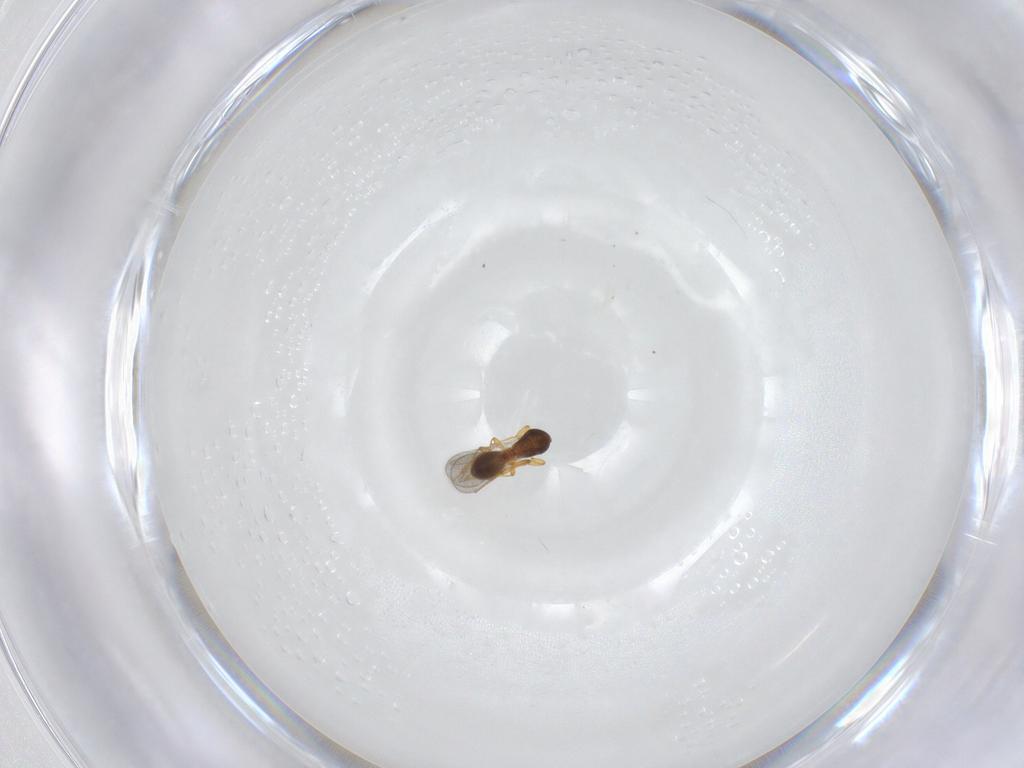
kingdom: Animalia
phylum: Arthropoda
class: Insecta
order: Hymenoptera
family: Platygastridae
